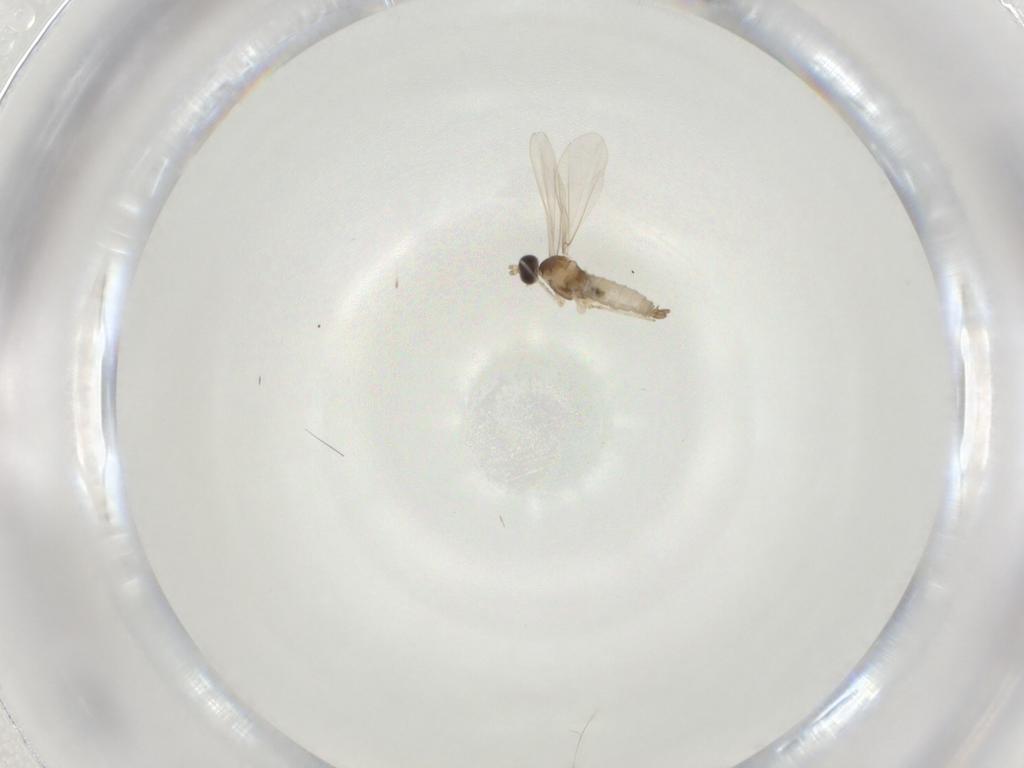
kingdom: Animalia
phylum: Arthropoda
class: Insecta
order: Diptera
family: Cecidomyiidae
